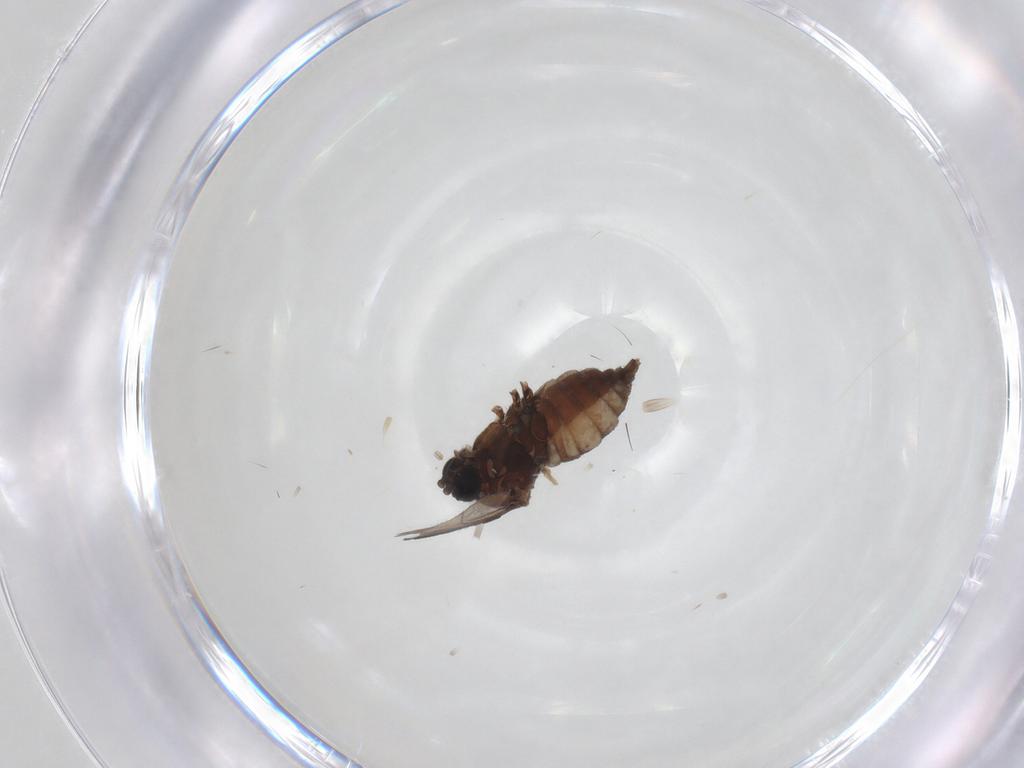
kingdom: Animalia
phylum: Arthropoda
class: Insecta
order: Diptera
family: Sciaridae
